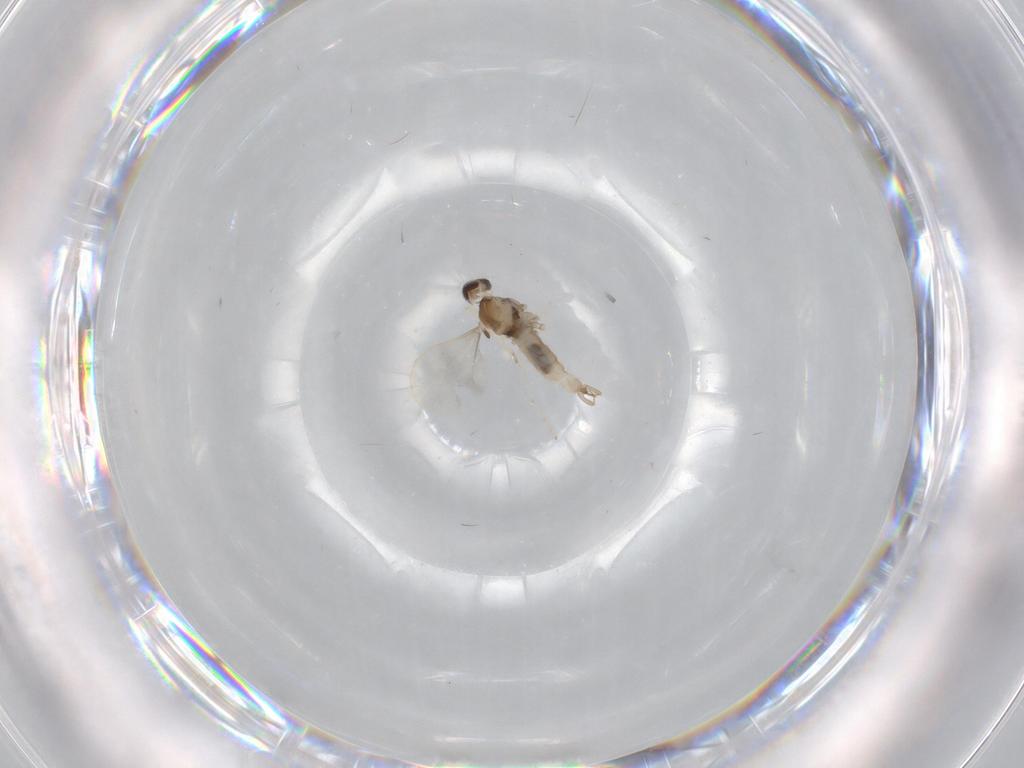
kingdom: Animalia
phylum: Arthropoda
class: Insecta
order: Diptera
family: Cecidomyiidae
